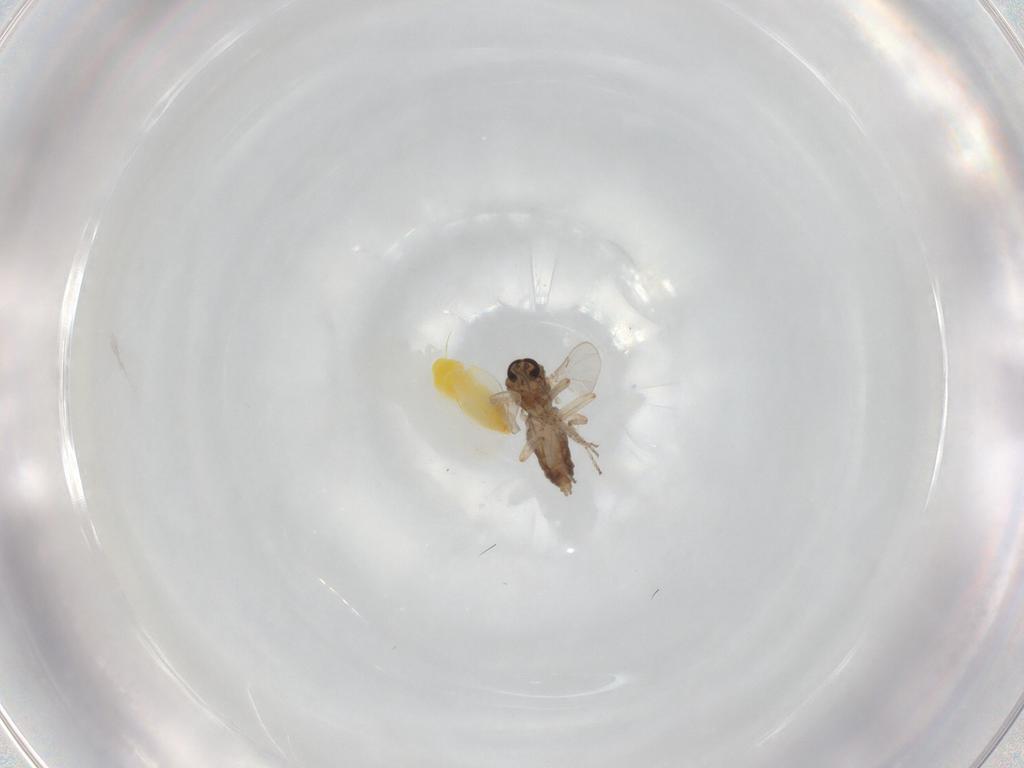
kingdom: Animalia
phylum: Arthropoda
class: Insecta
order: Diptera
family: Ceratopogonidae
